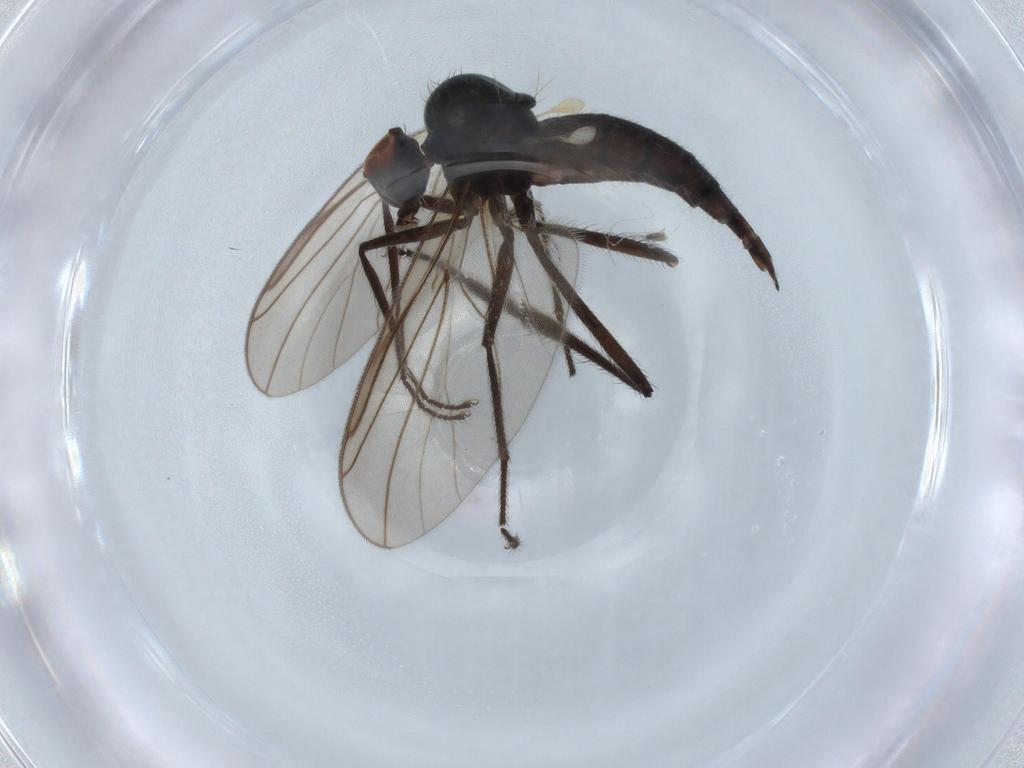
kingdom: Animalia
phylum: Arthropoda
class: Insecta
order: Diptera
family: Hybotidae
